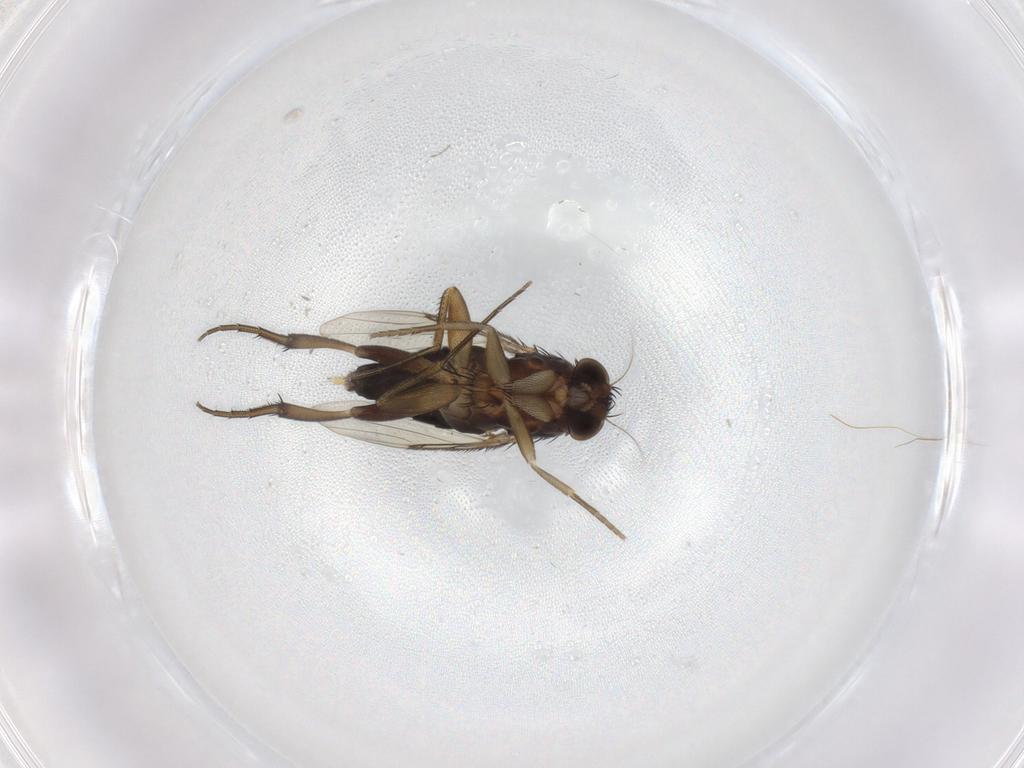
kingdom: Animalia
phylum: Arthropoda
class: Insecta
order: Diptera
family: Phoridae
